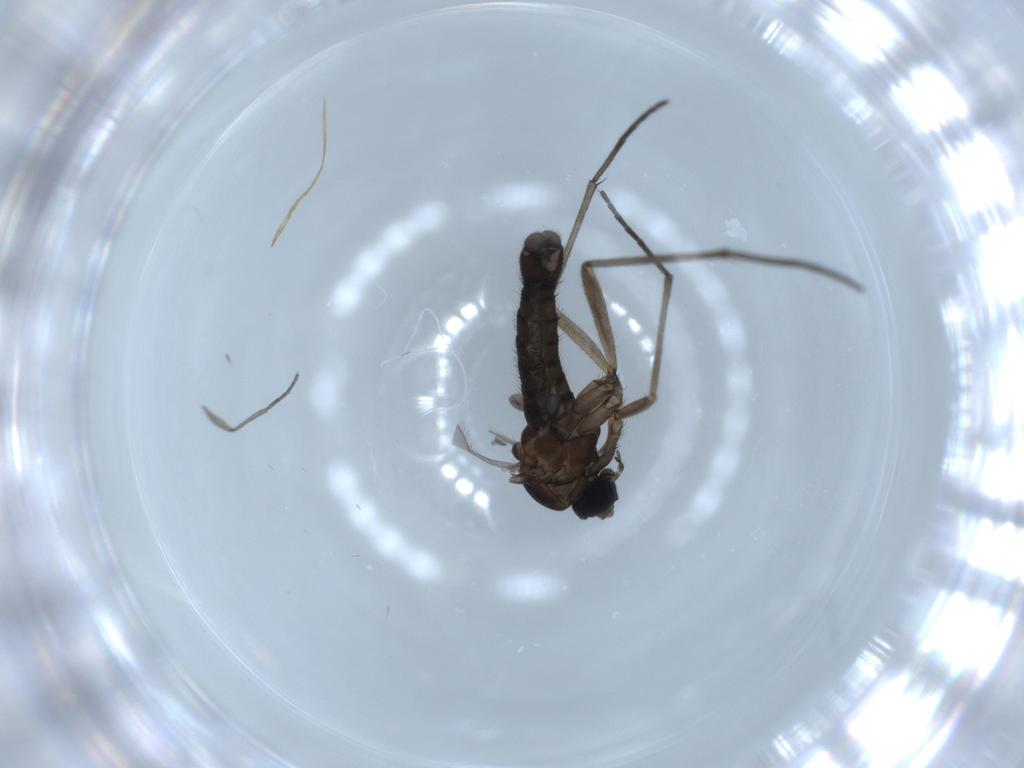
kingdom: Animalia
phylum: Arthropoda
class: Insecta
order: Diptera
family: Sciaridae
